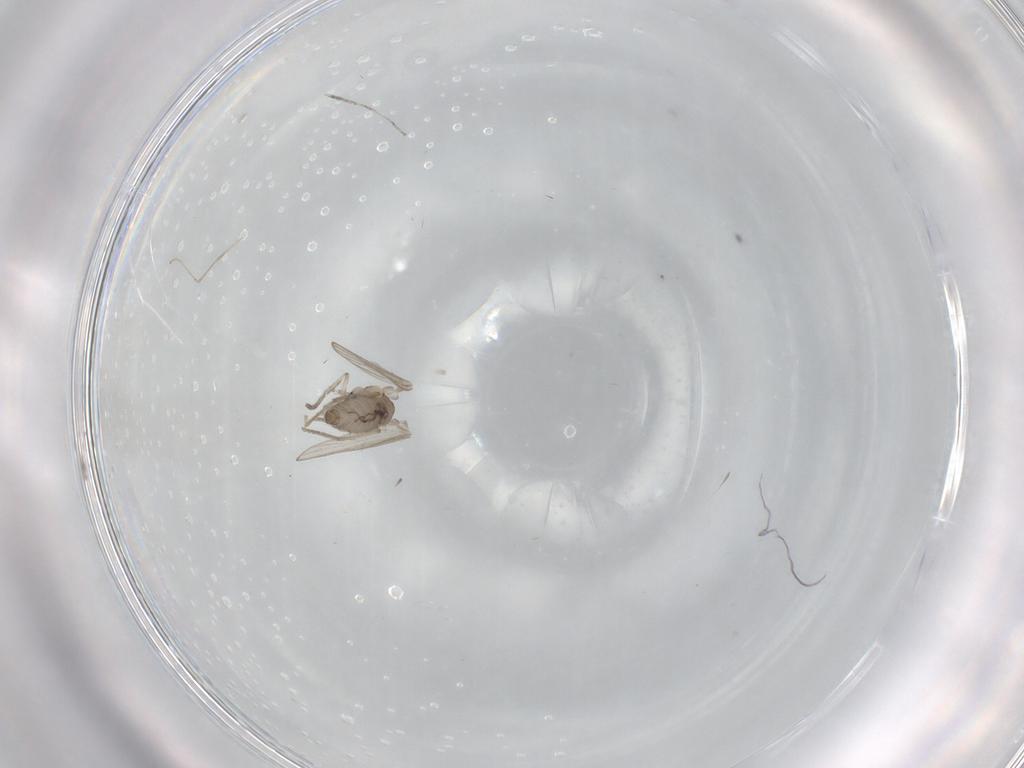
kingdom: Animalia
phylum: Arthropoda
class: Insecta
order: Diptera
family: Psychodidae
